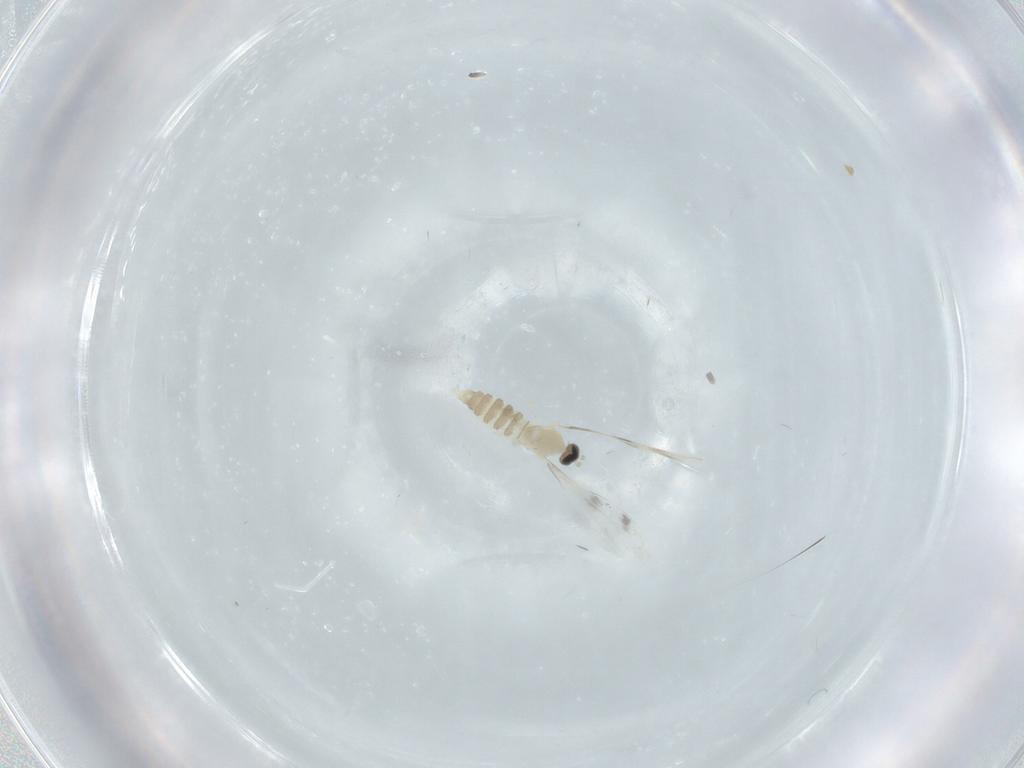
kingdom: Animalia
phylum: Arthropoda
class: Insecta
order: Diptera
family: Cecidomyiidae
